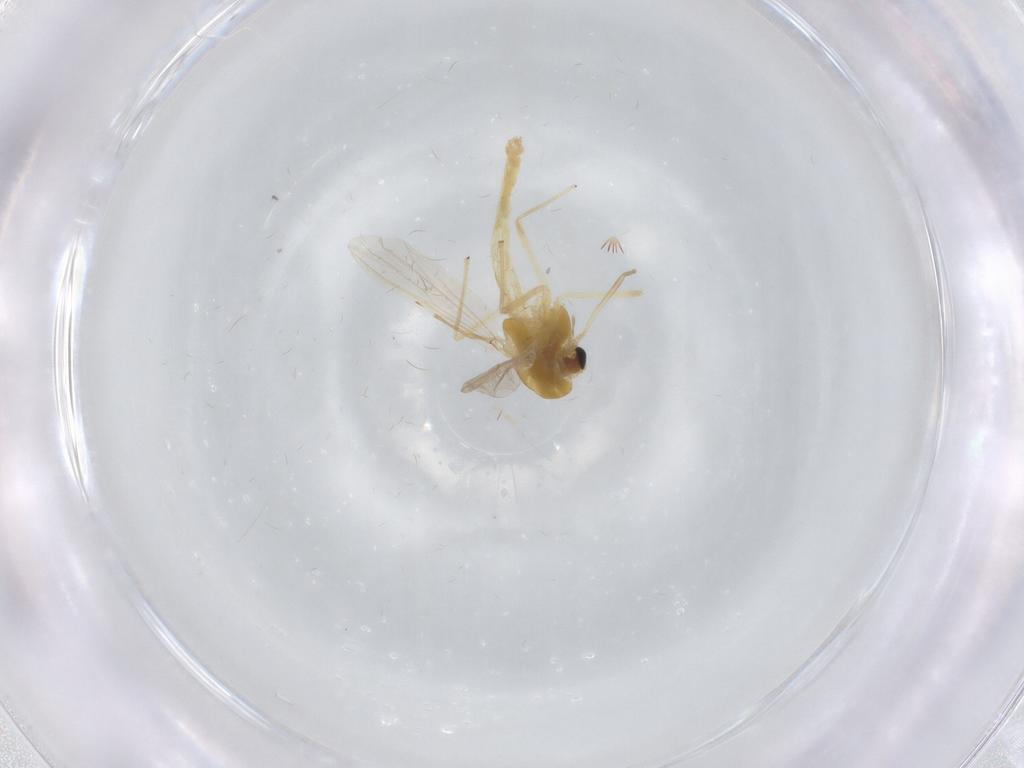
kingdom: Animalia
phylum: Arthropoda
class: Insecta
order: Diptera
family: Chironomidae
